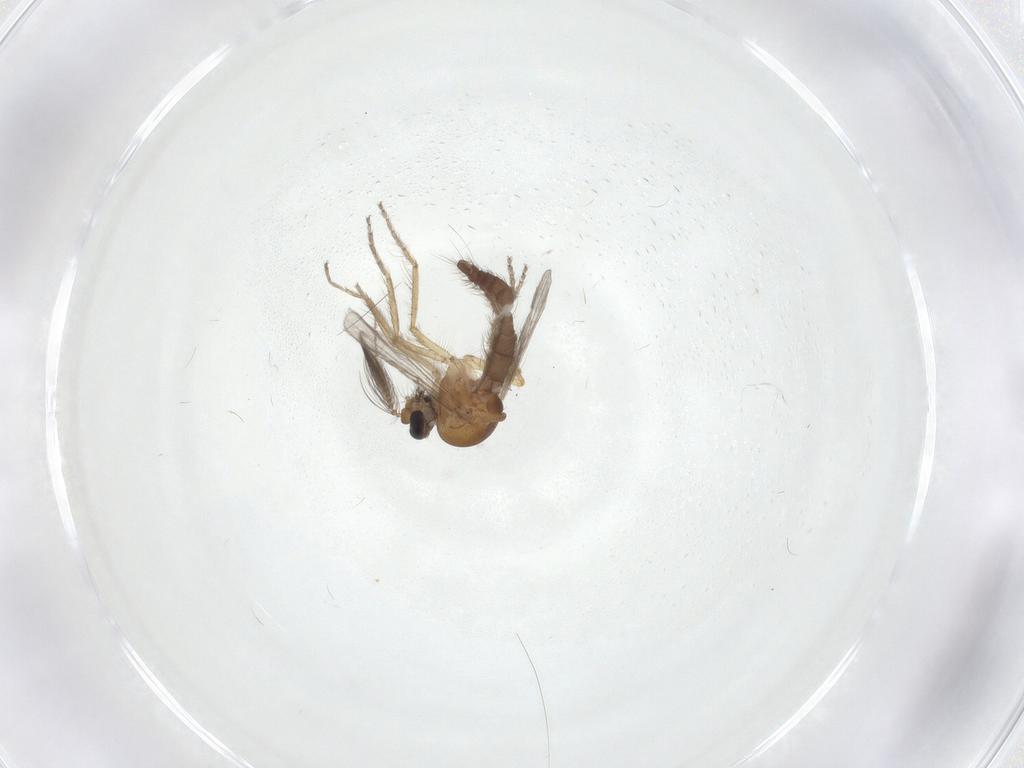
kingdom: Animalia
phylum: Arthropoda
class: Insecta
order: Diptera
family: Ceratopogonidae
